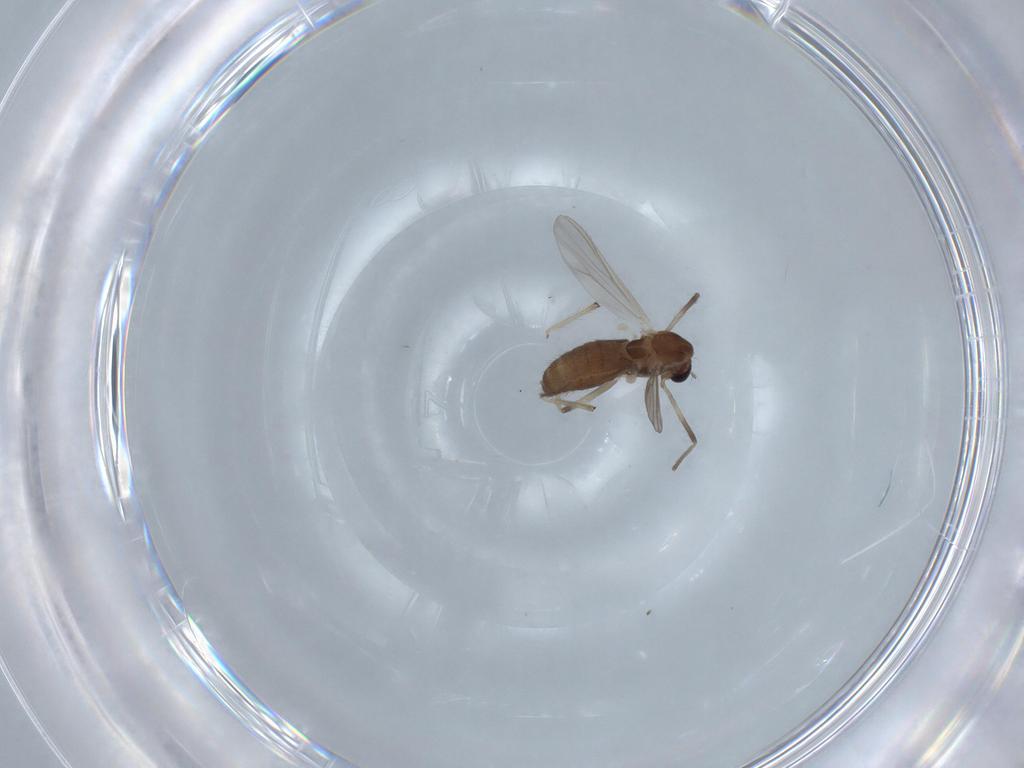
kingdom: Animalia
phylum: Arthropoda
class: Insecta
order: Diptera
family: Chironomidae
